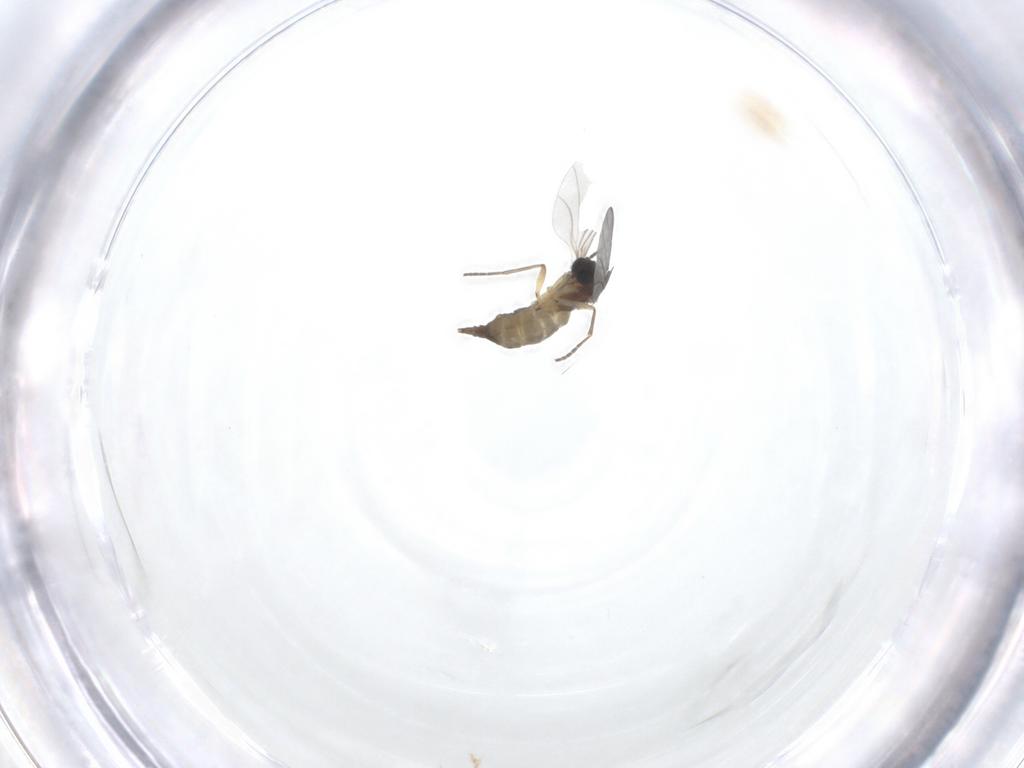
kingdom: Animalia
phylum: Arthropoda
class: Insecta
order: Diptera
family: Sciaridae
